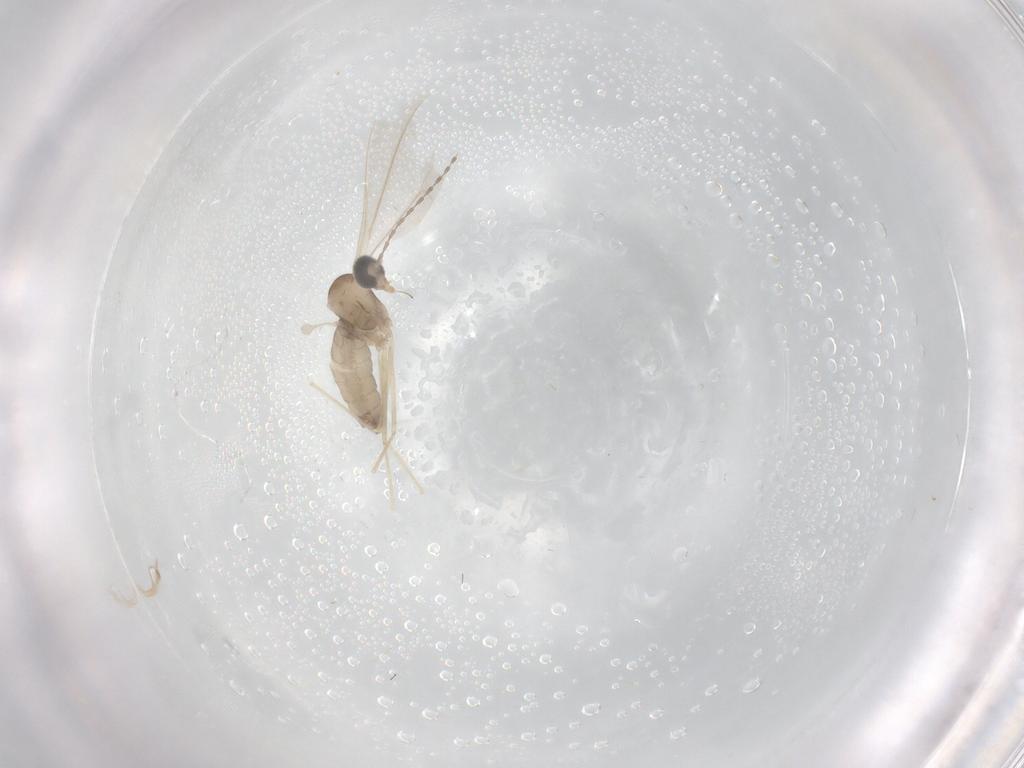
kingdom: Animalia
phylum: Arthropoda
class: Insecta
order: Diptera
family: Cecidomyiidae
